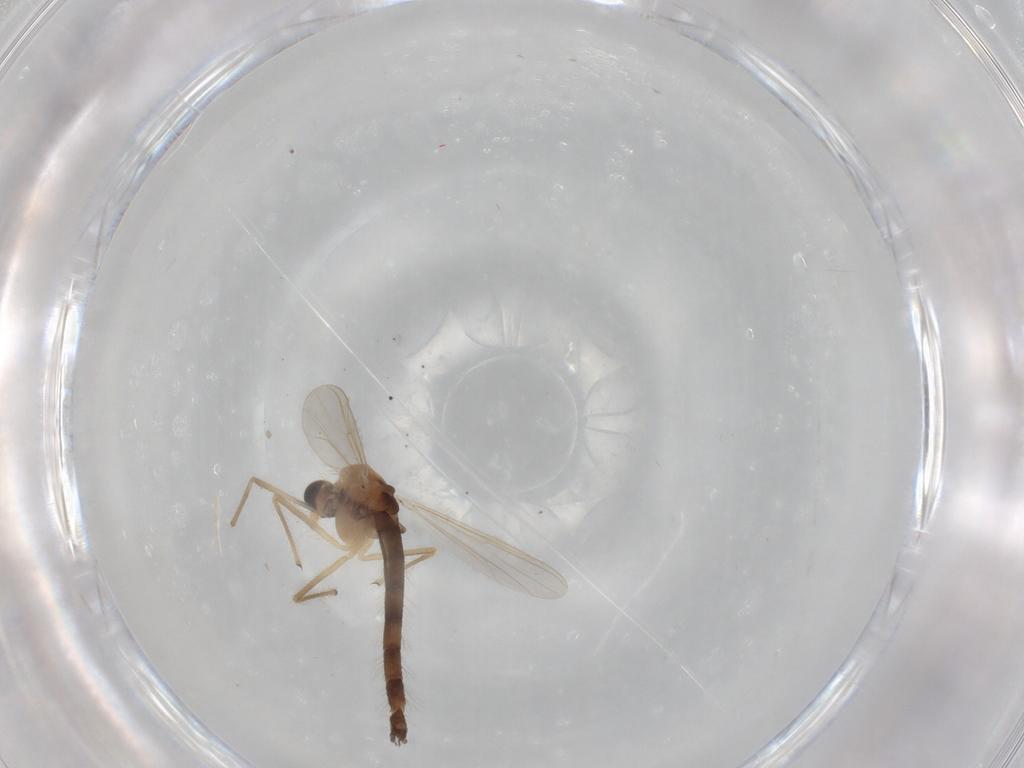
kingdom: Animalia
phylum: Arthropoda
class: Insecta
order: Diptera
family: Chironomidae
